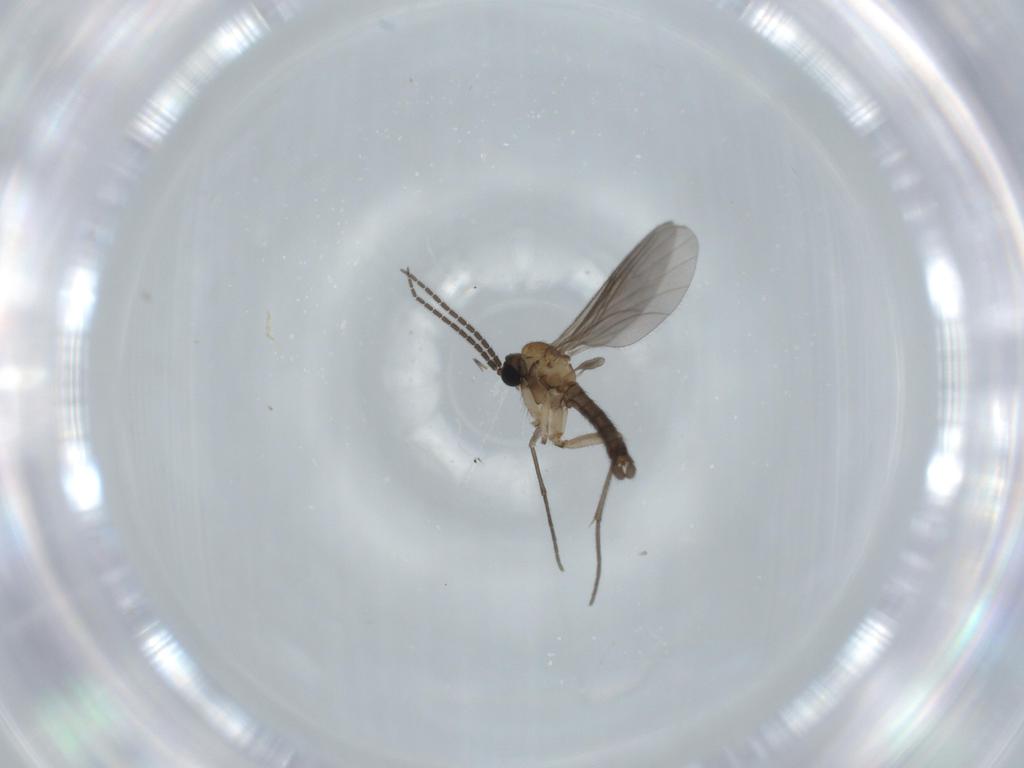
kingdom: Animalia
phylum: Arthropoda
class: Insecta
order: Diptera
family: Sciaridae
